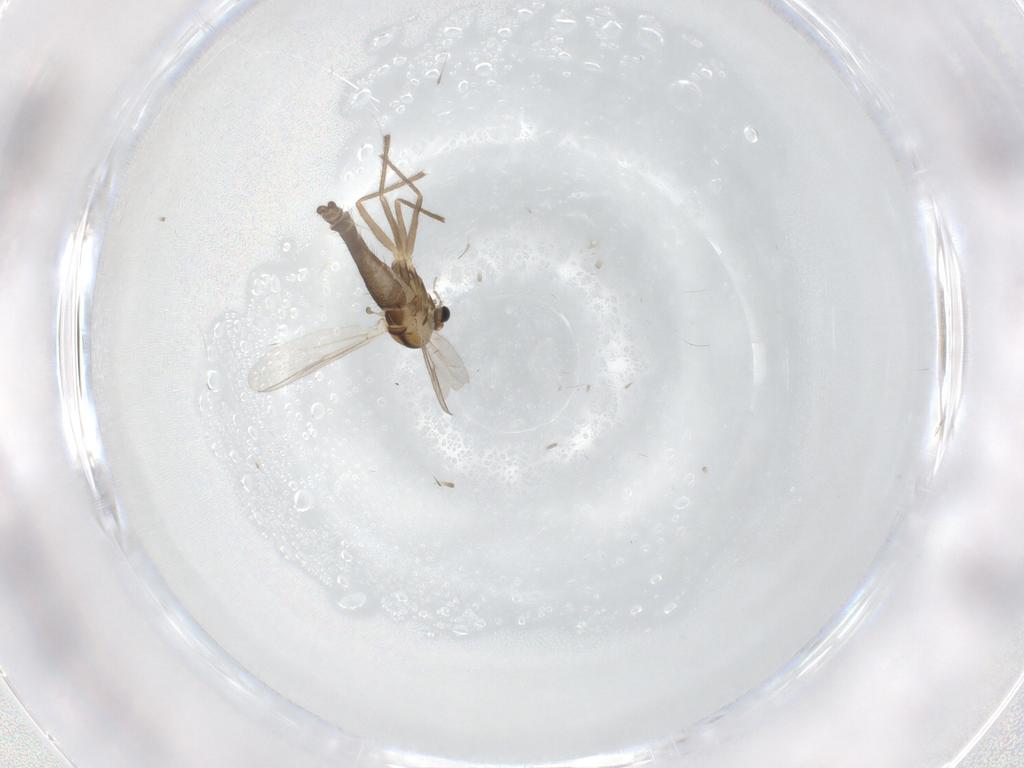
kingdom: Animalia
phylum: Arthropoda
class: Insecta
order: Diptera
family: Chironomidae
